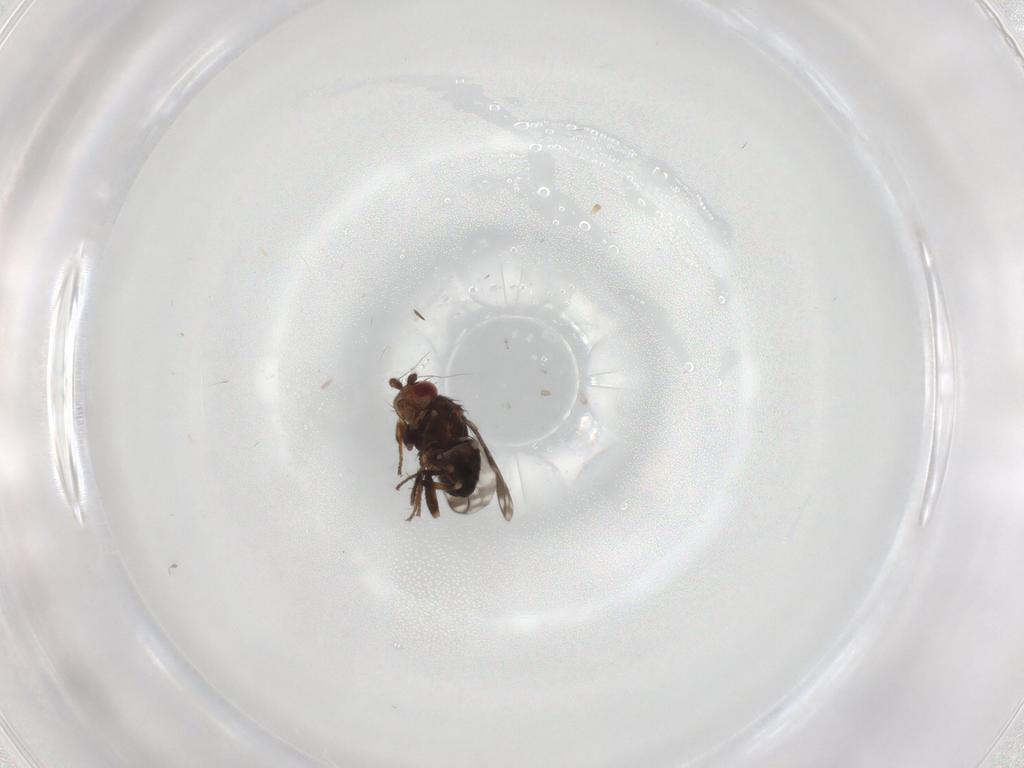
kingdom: Animalia
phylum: Arthropoda
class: Insecta
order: Diptera
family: Sphaeroceridae
